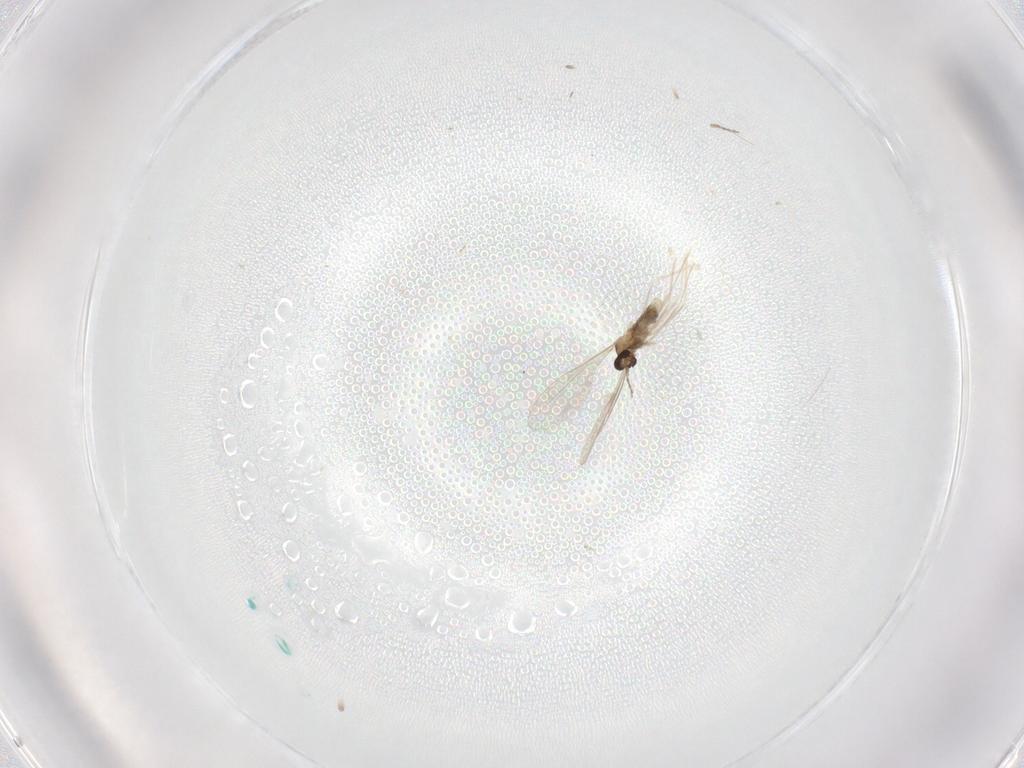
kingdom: Animalia
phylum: Arthropoda
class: Insecta
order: Diptera
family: Cecidomyiidae
